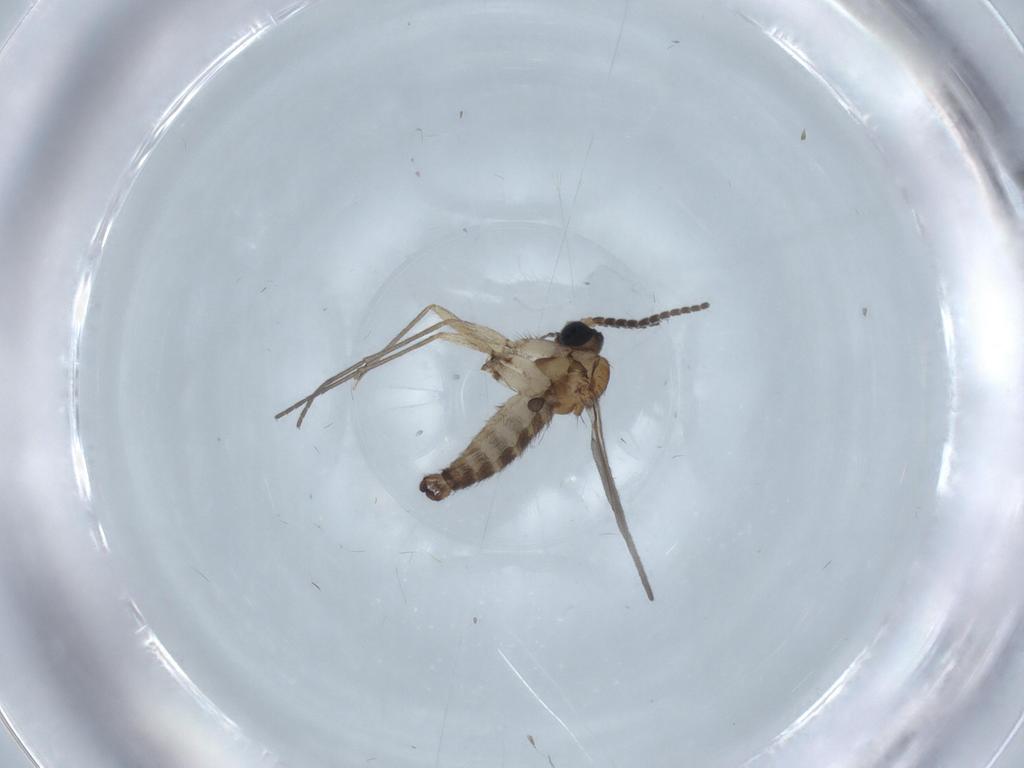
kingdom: Animalia
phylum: Arthropoda
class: Insecta
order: Diptera
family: Sciaridae
